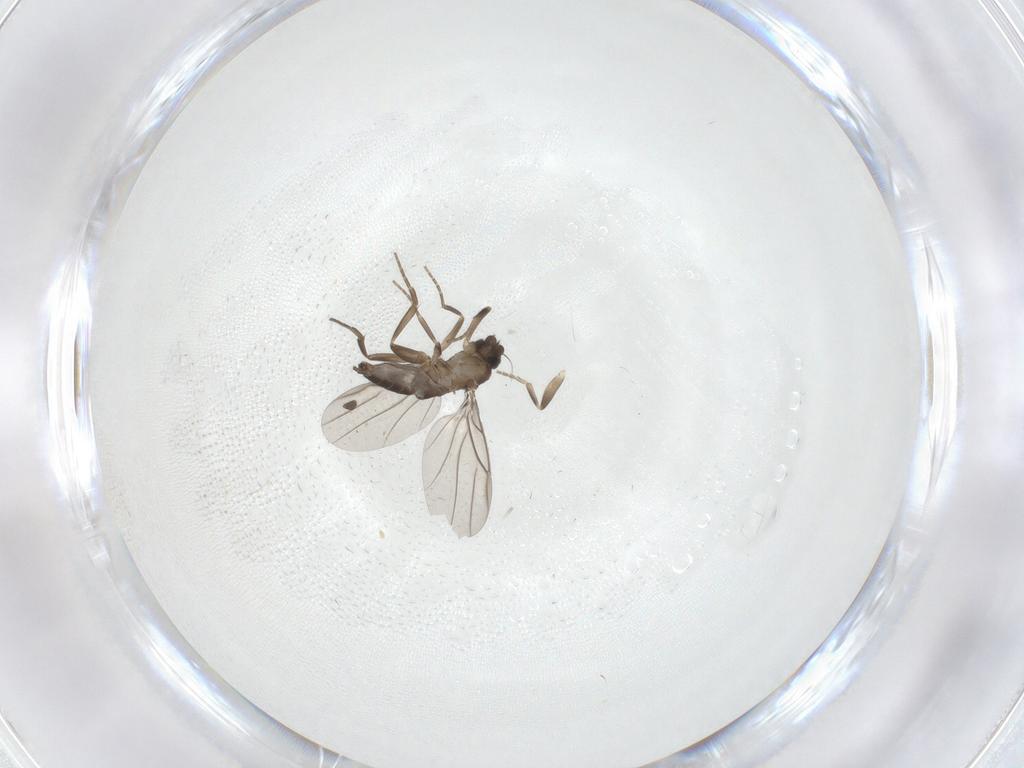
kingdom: Animalia
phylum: Arthropoda
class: Insecta
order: Diptera
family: Phoridae
